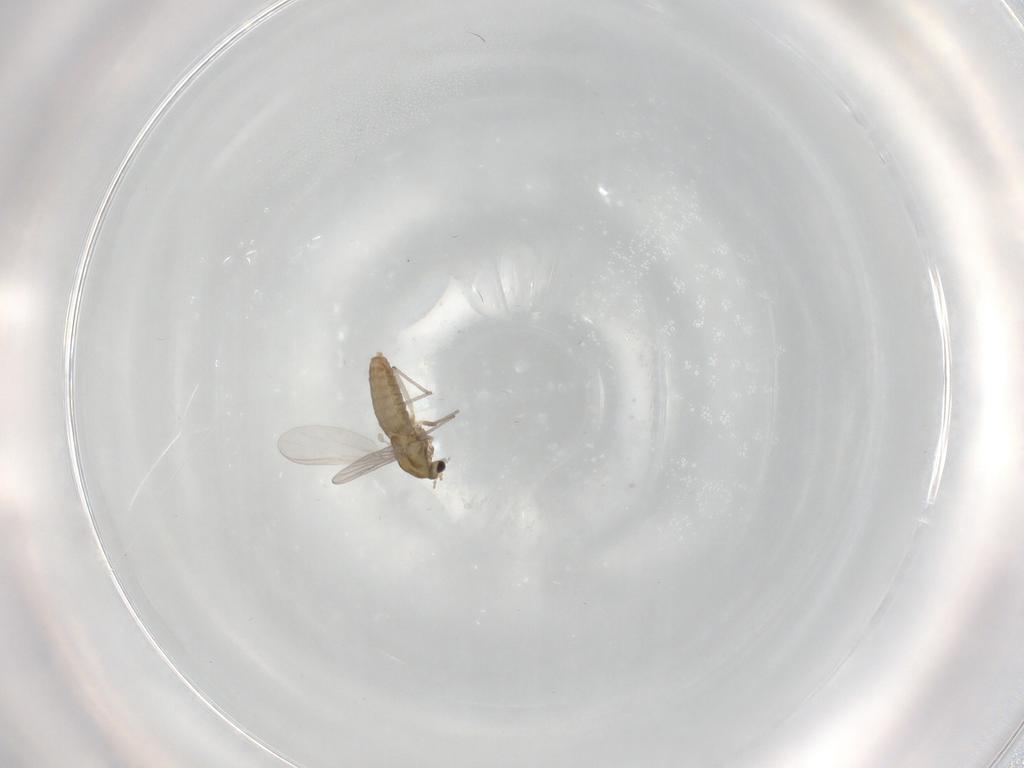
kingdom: Animalia
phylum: Arthropoda
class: Insecta
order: Diptera
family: Chironomidae
